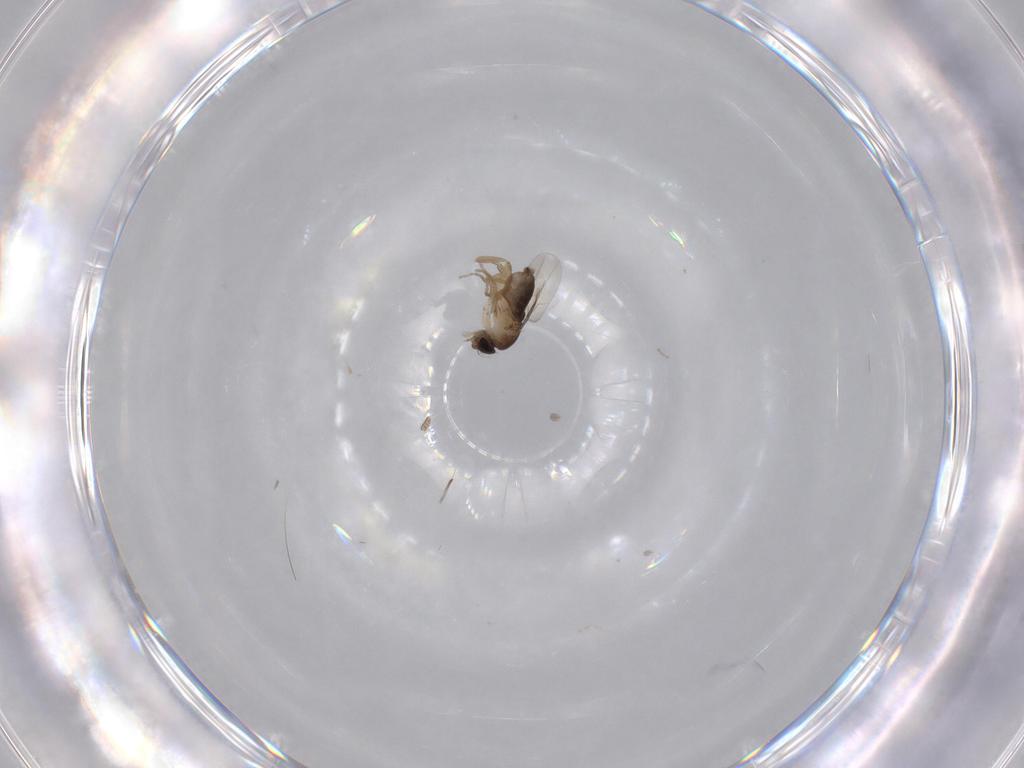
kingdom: Animalia
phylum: Arthropoda
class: Insecta
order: Diptera
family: Phoridae
